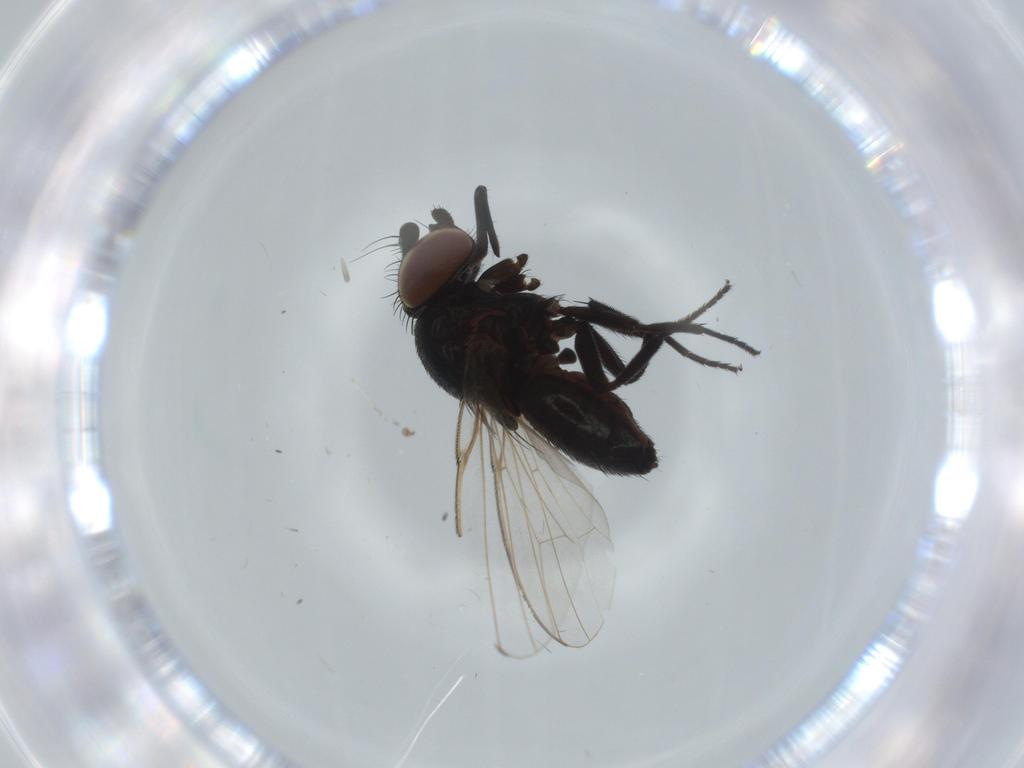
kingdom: Animalia
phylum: Arthropoda
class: Insecta
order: Diptera
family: Milichiidae
